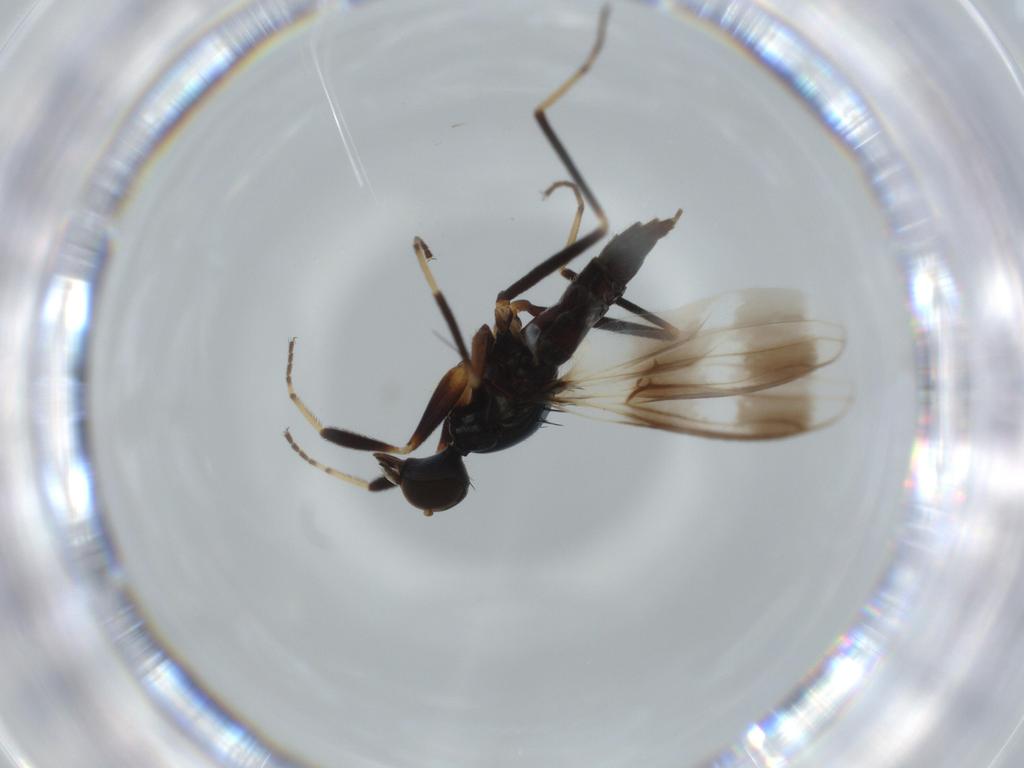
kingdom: Animalia
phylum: Arthropoda
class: Insecta
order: Diptera
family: Hybotidae
